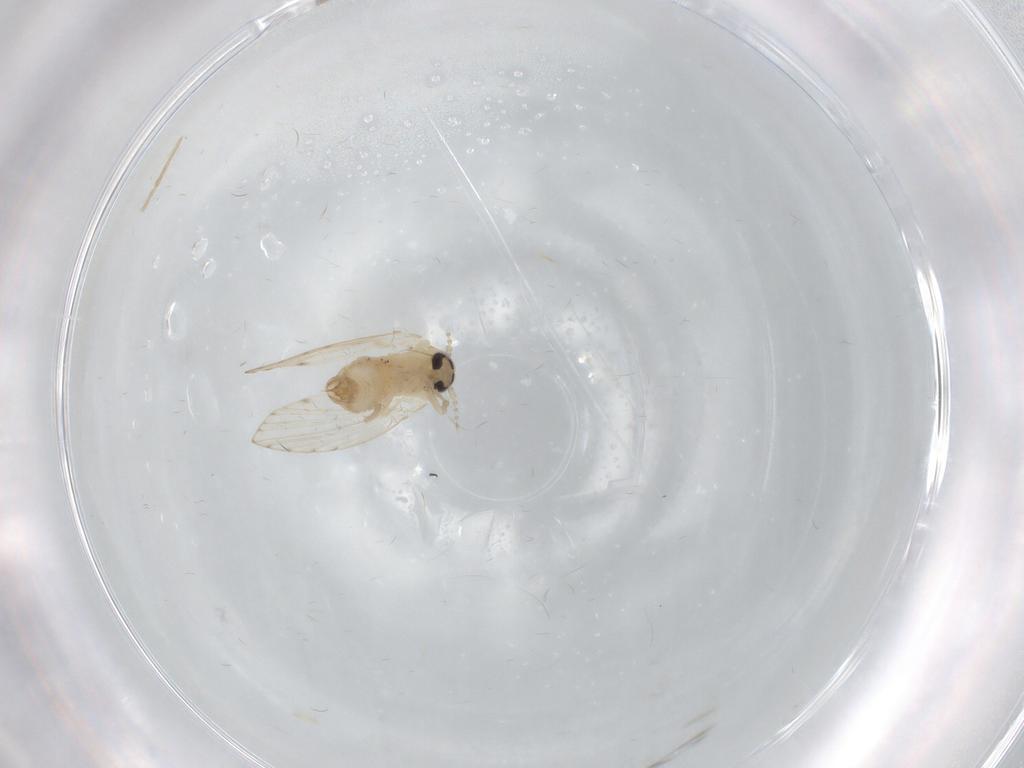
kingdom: Animalia
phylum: Arthropoda
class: Insecta
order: Diptera
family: Psychodidae
